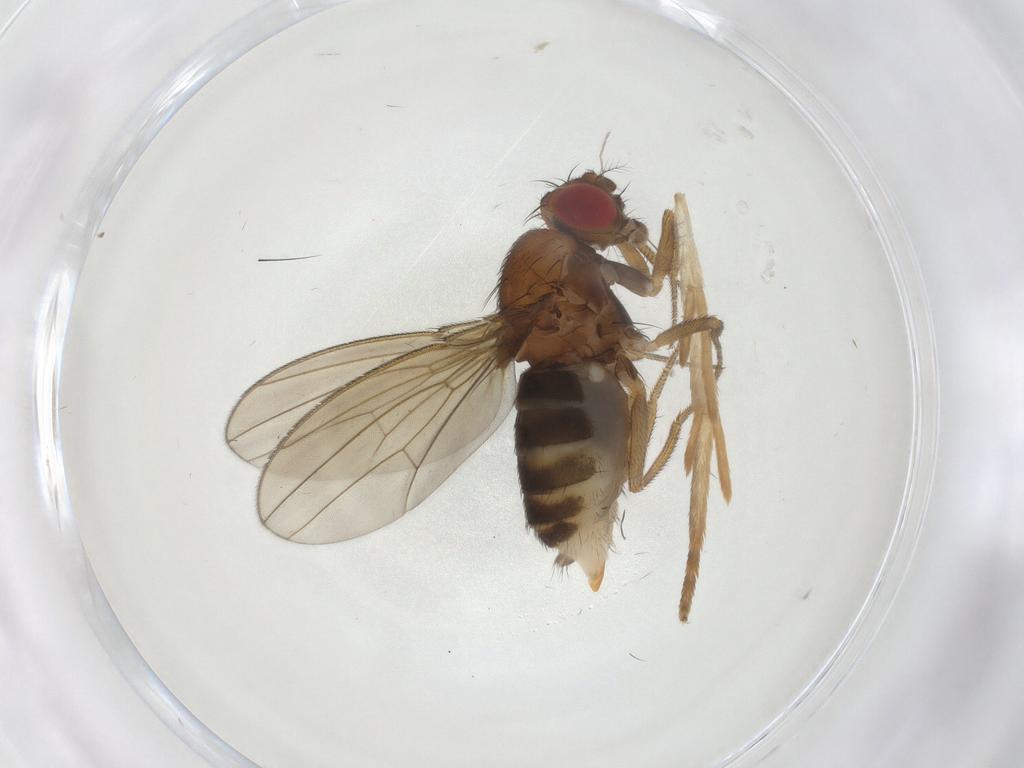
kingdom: Animalia
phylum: Arthropoda
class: Insecta
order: Diptera
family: Drosophilidae
